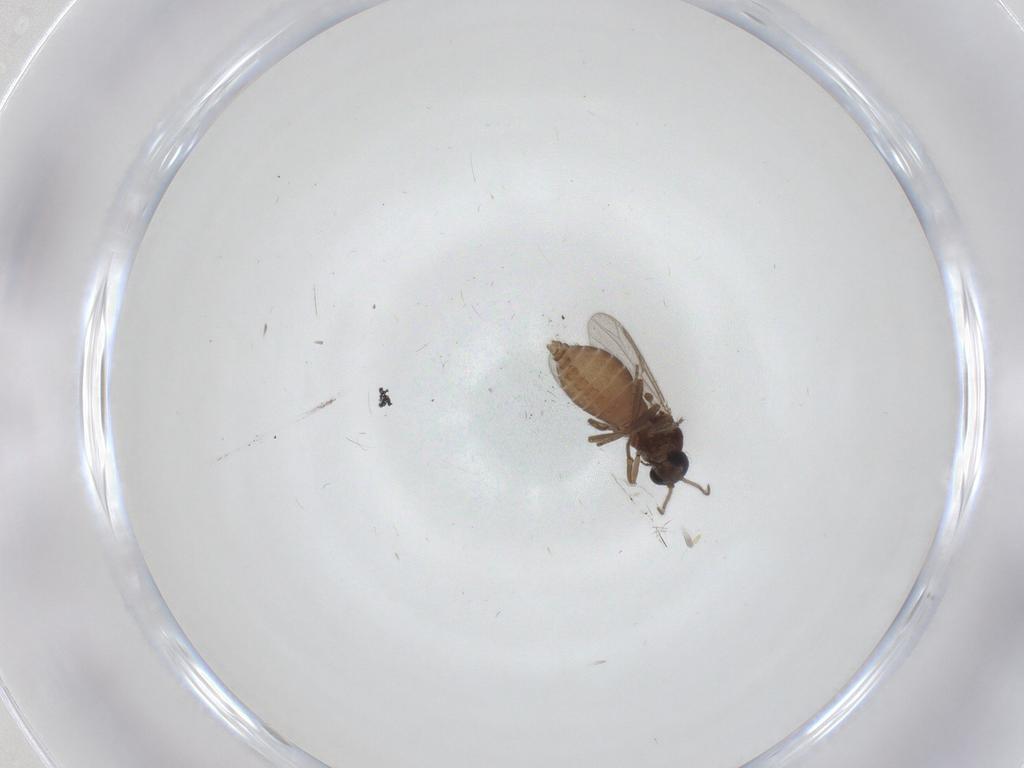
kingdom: Animalia
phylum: Arthropoda
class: Insecta
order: Diptera
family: Ceratopogonidae
